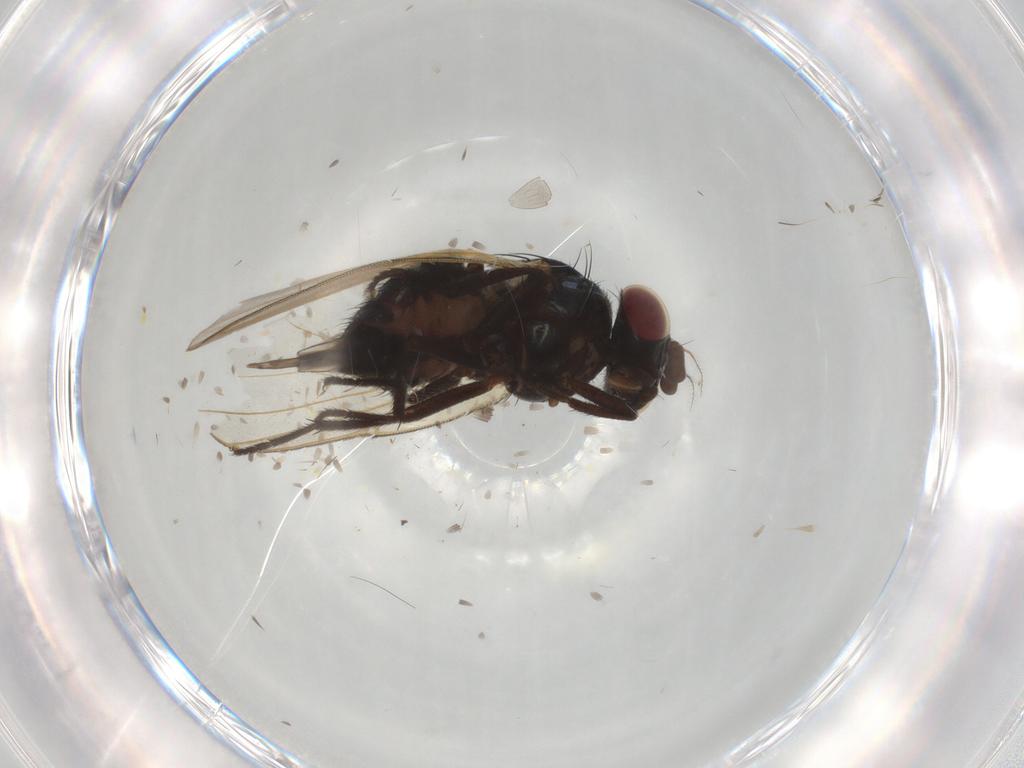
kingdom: Animalia
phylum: Arthropoda
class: Insecta
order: Diptera
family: Lonchaeidae
